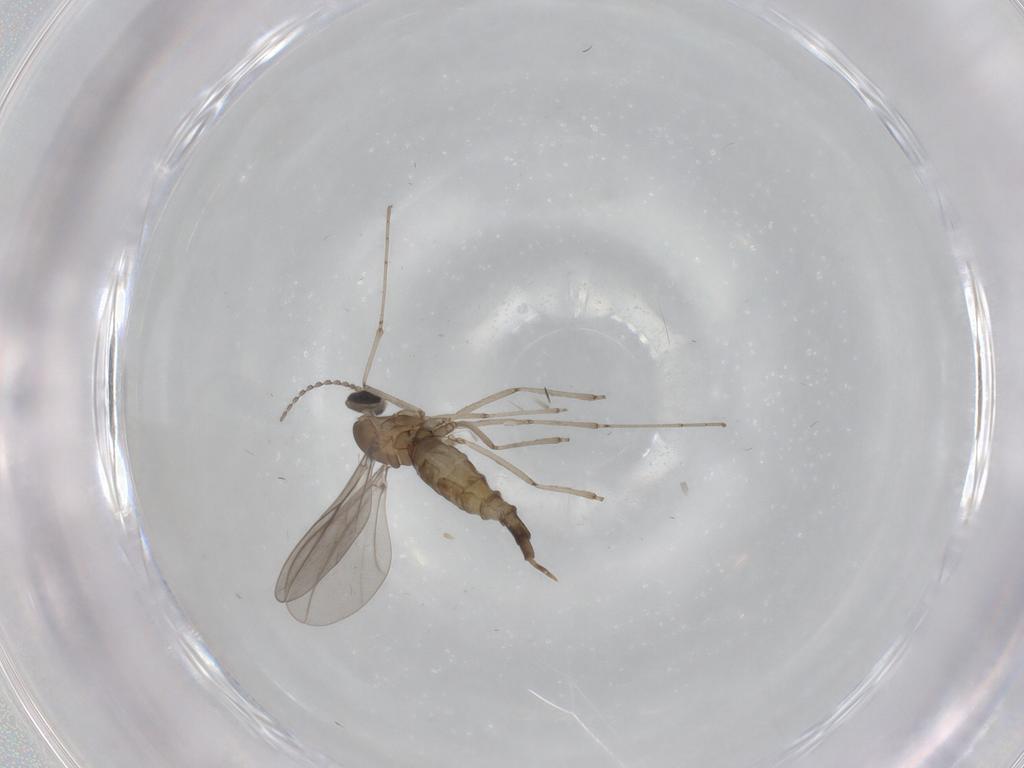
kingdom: Animalia
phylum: Arthropoda
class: Insecta
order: Diptera
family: Cecidomyiidae
